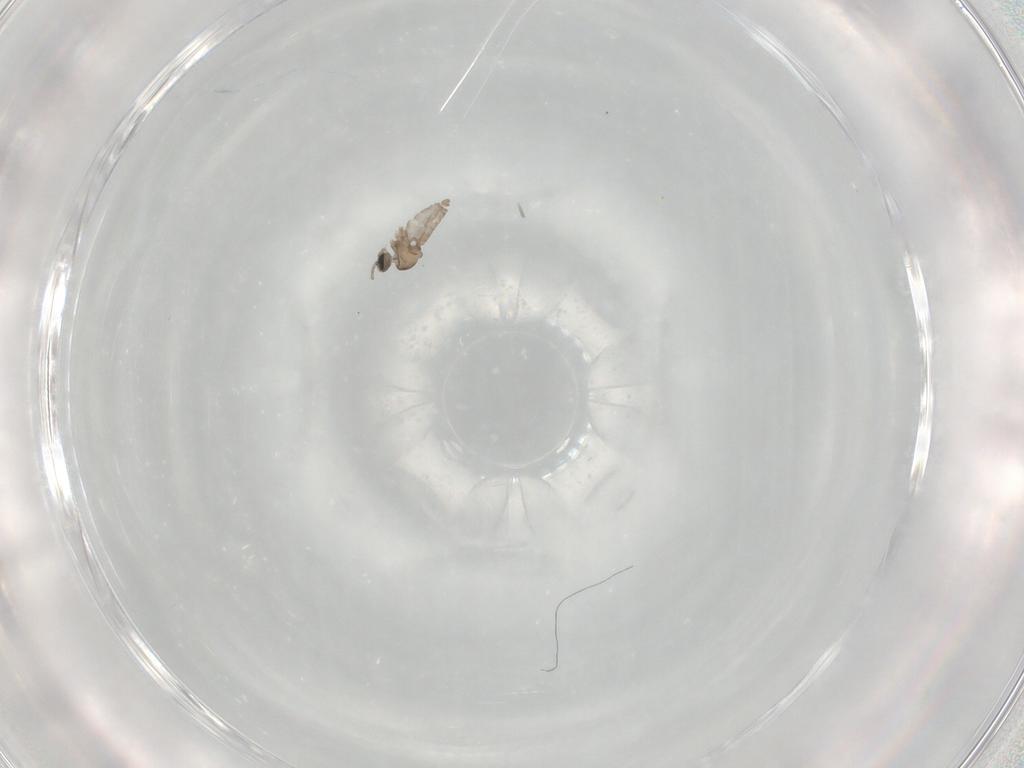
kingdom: Animalia
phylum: Arthropoda
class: Insecta
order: Diptera
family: Cecidomyiidae
